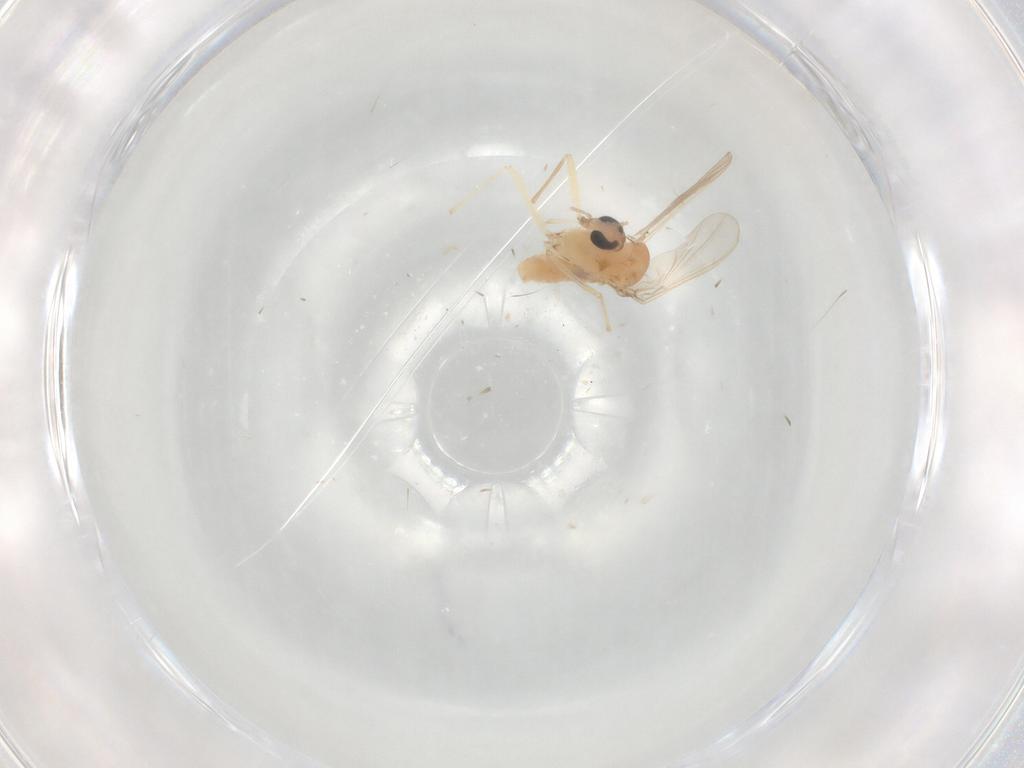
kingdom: Animalia
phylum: Arthropoda
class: Insecta
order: Diptera
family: Chironomidae
